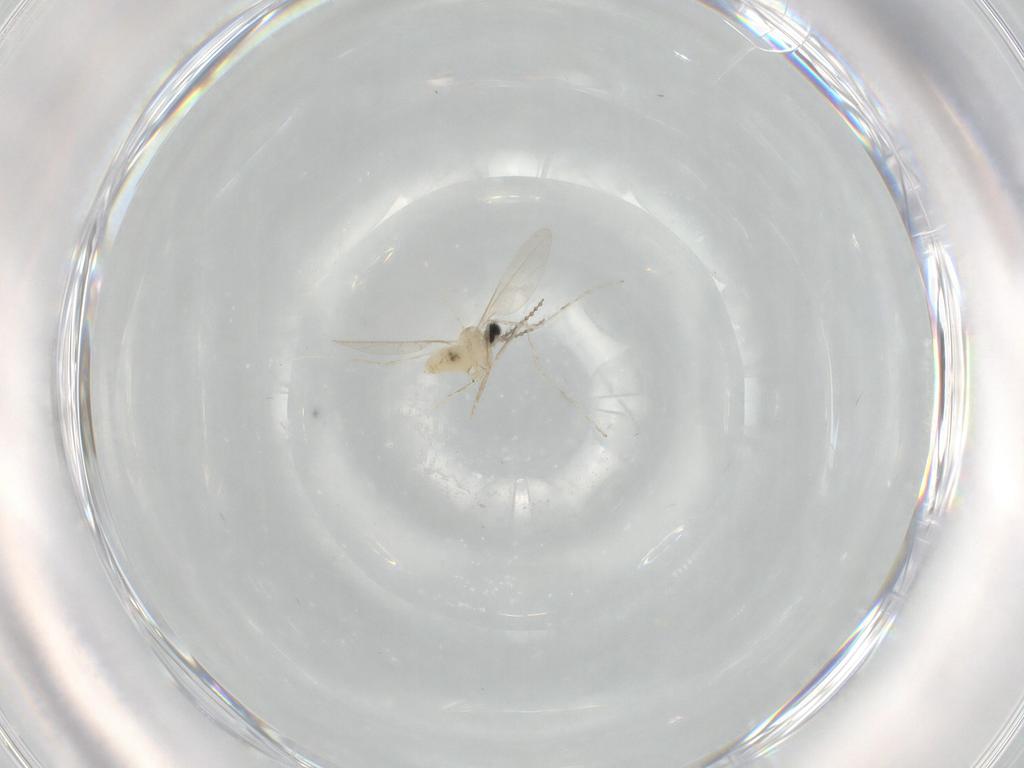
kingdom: Animalia
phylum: Arthropoda
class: Insecta
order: Diptera
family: Cecidomyiidae
